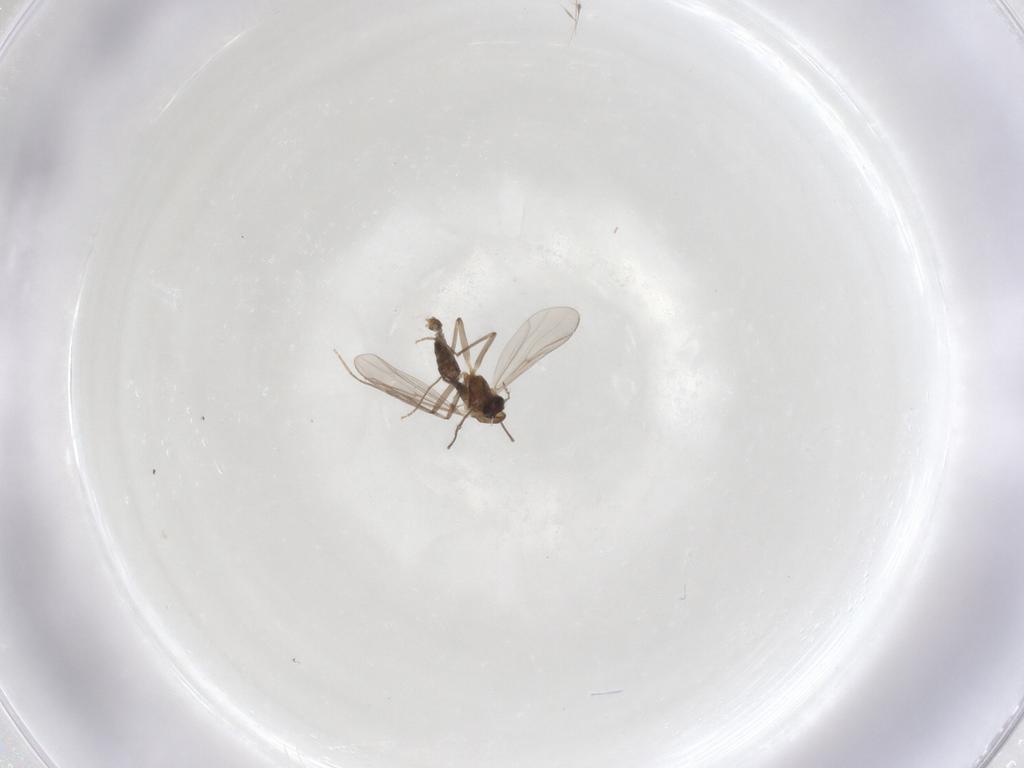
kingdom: Animalia
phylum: Arthropoda
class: Insecta
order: Diptera
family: Chironomidae
